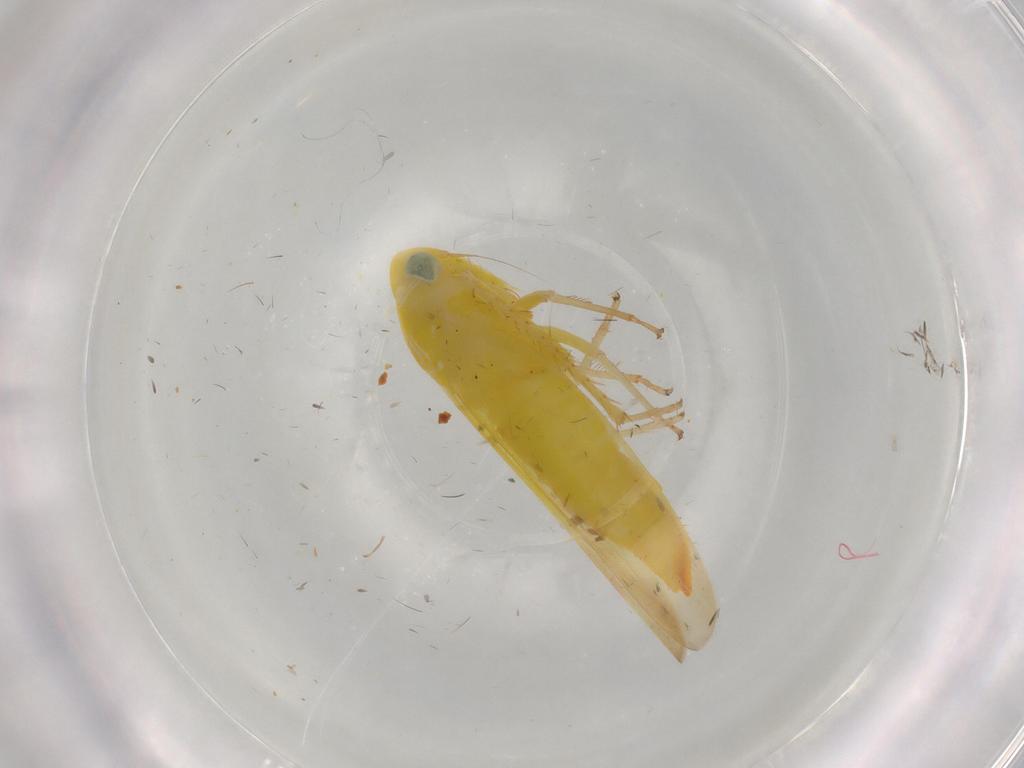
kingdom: Animalia
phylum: Arthropoda
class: Insecta
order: Hemiptera
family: Aleyrodidae
